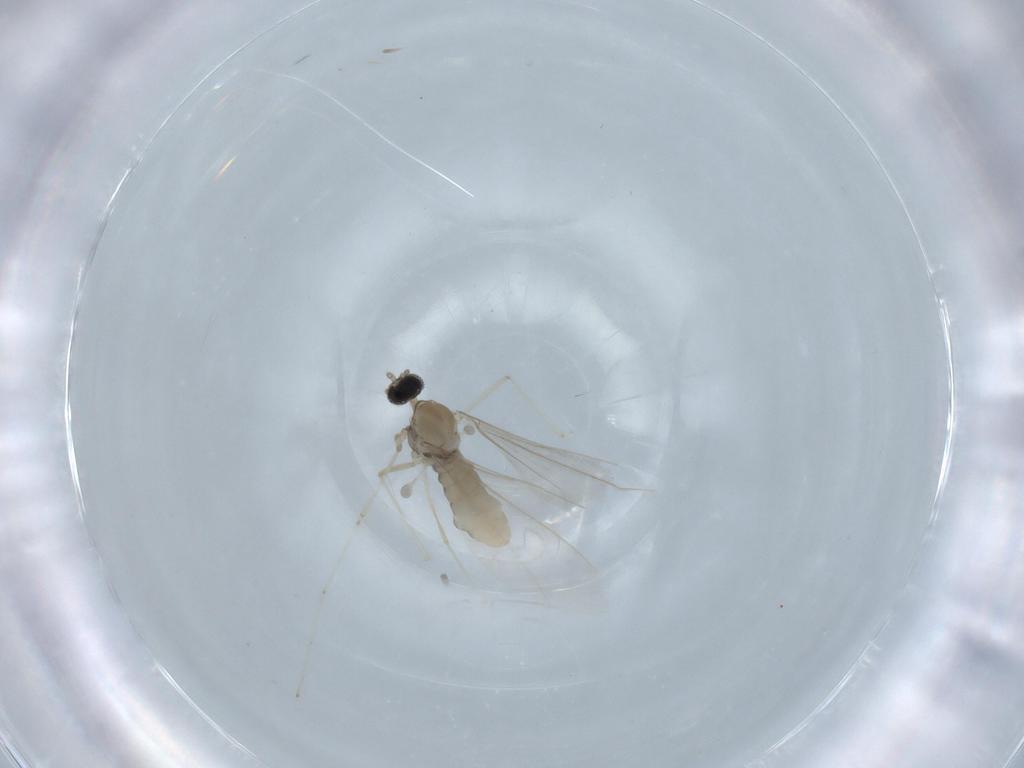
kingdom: Animalia
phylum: Arthropoda
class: Insecta
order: Diptera
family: Cecidomyiidae
